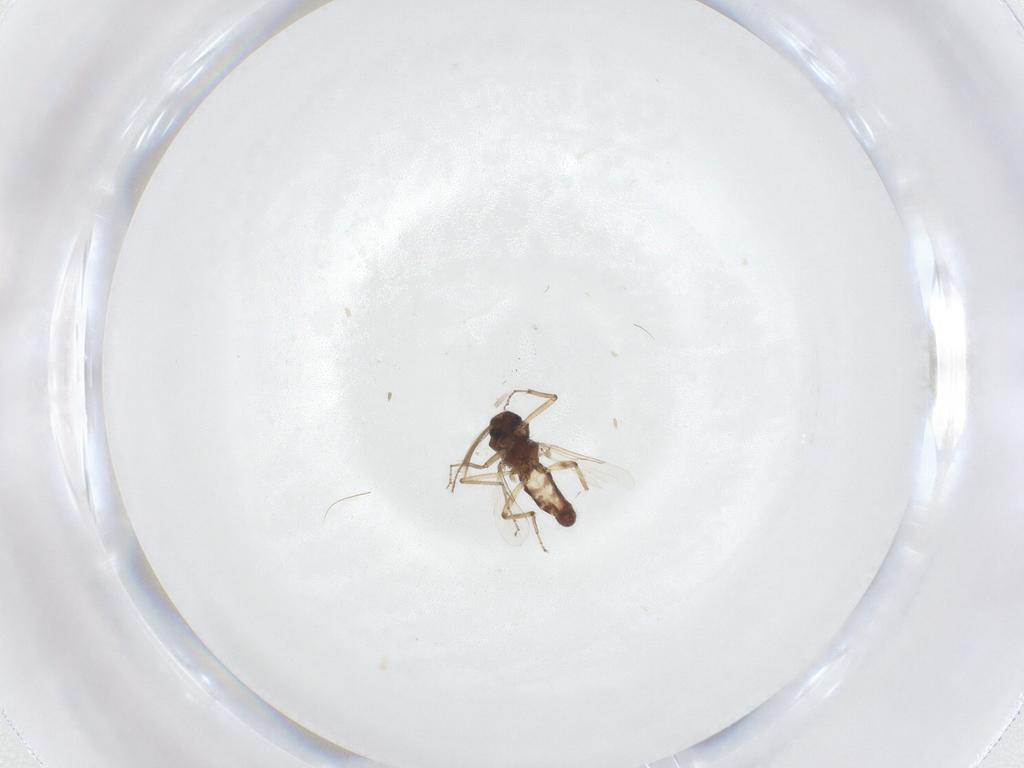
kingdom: Animalia
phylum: Arthropoda
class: Insecta
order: Diptera
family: Ceratopogonidae
